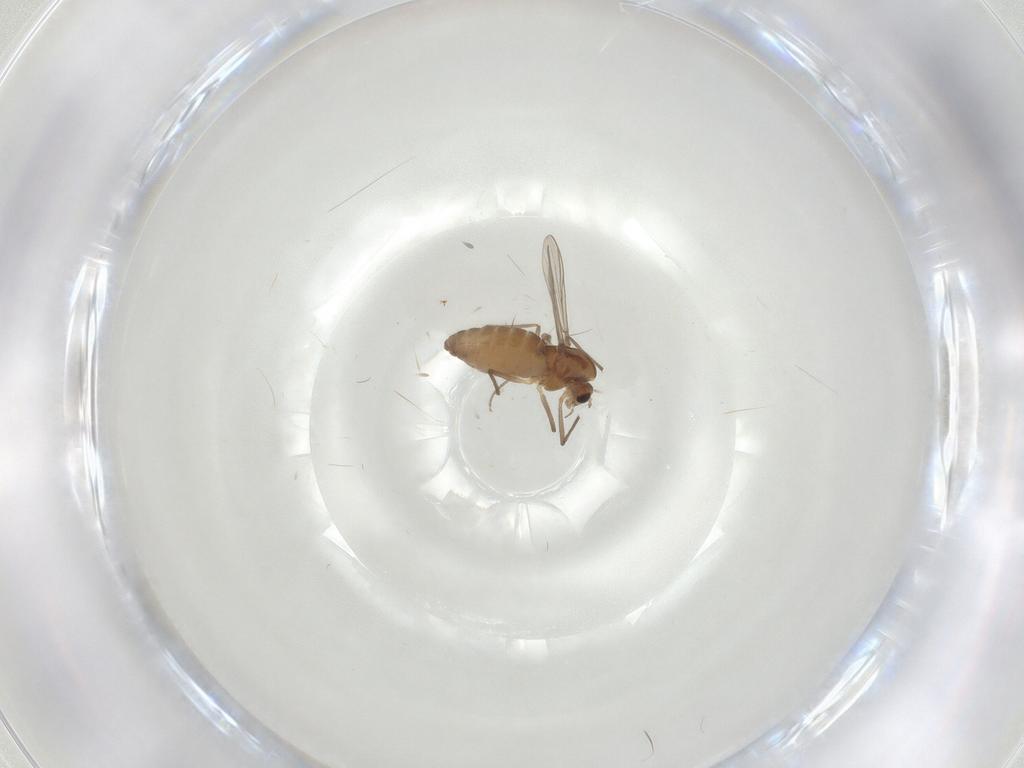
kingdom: Animalia
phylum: Arthropoda
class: Insecta
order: Diptera
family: Chironomidae
